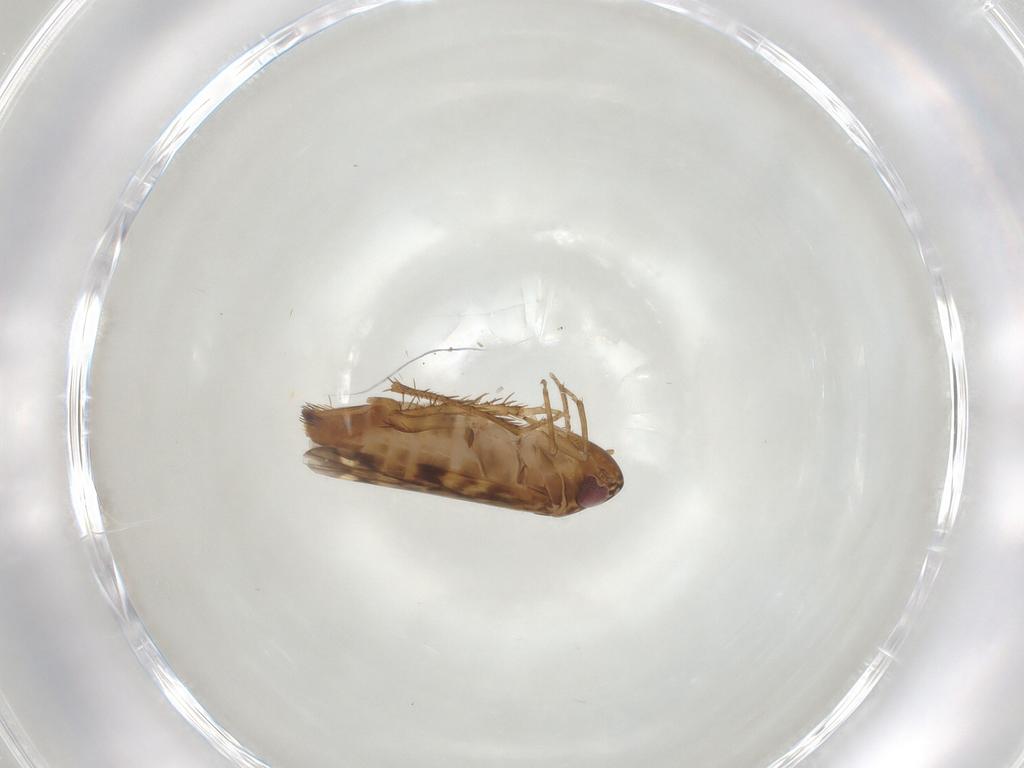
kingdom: Animalia
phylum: Arthropoda
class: Insecta
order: Hemiptera
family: Cicadellidae
